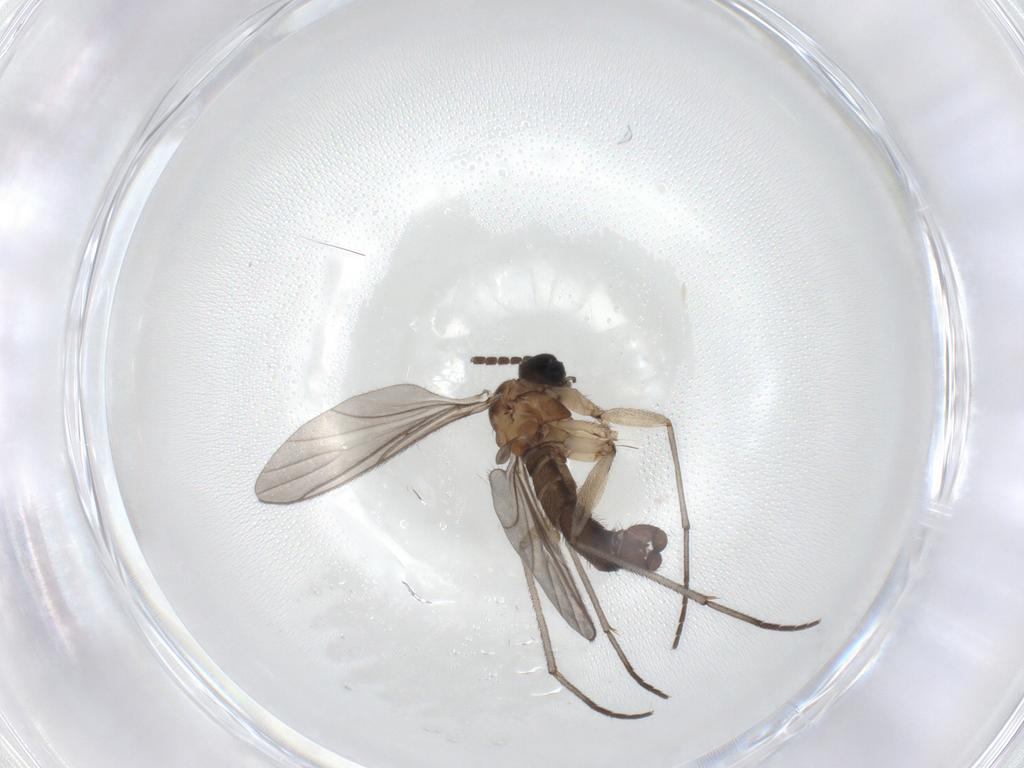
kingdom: Animalia
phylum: Arthropoda
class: Insecta
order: Diptera
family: Sciaridae
